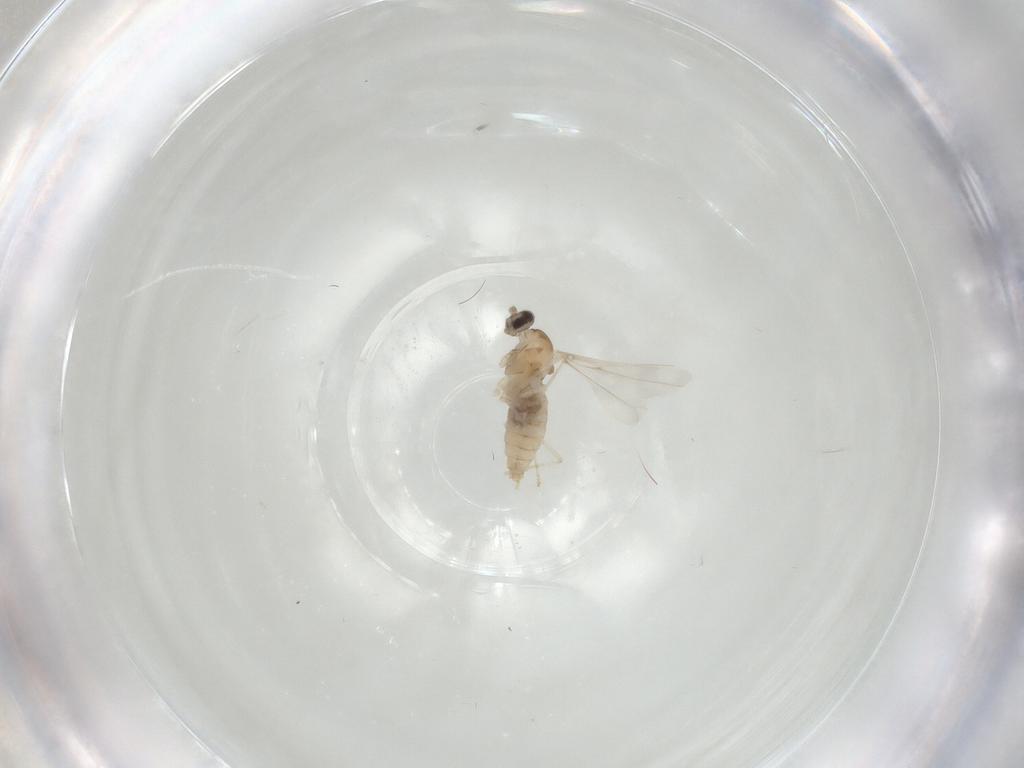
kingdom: Animalia
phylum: Arthropoda
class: Insecta
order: Diptera
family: Cecidomyiidae
